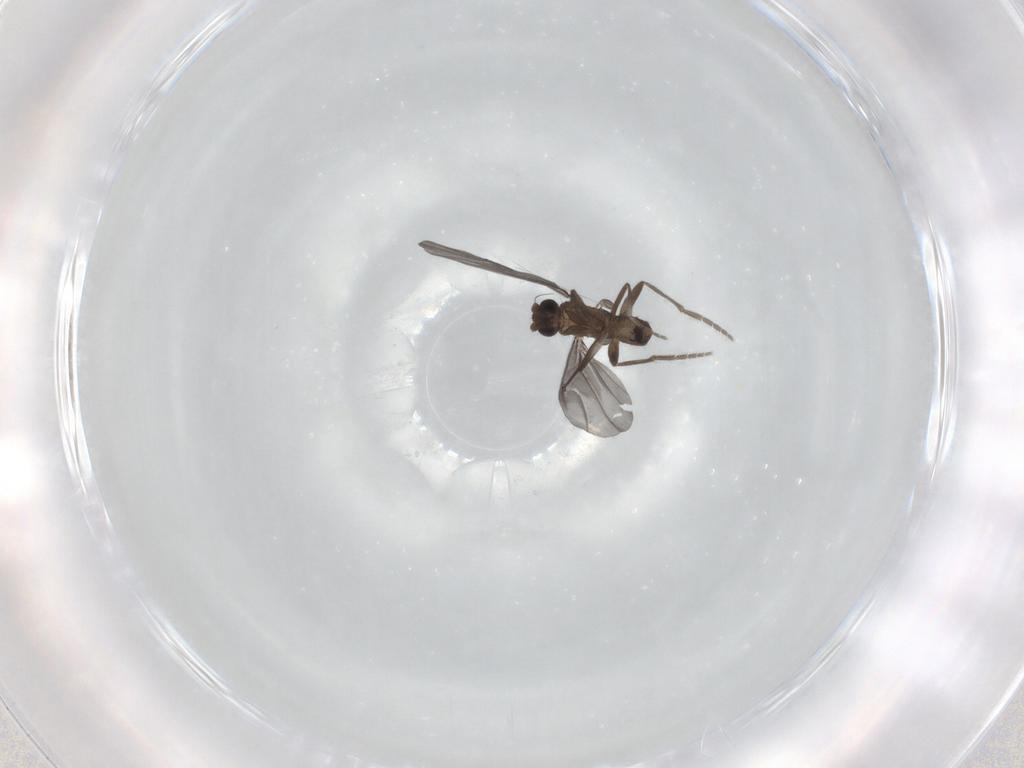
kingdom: Animalia
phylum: Arthropoda
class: Insecta
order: Diptera
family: Phoridae
